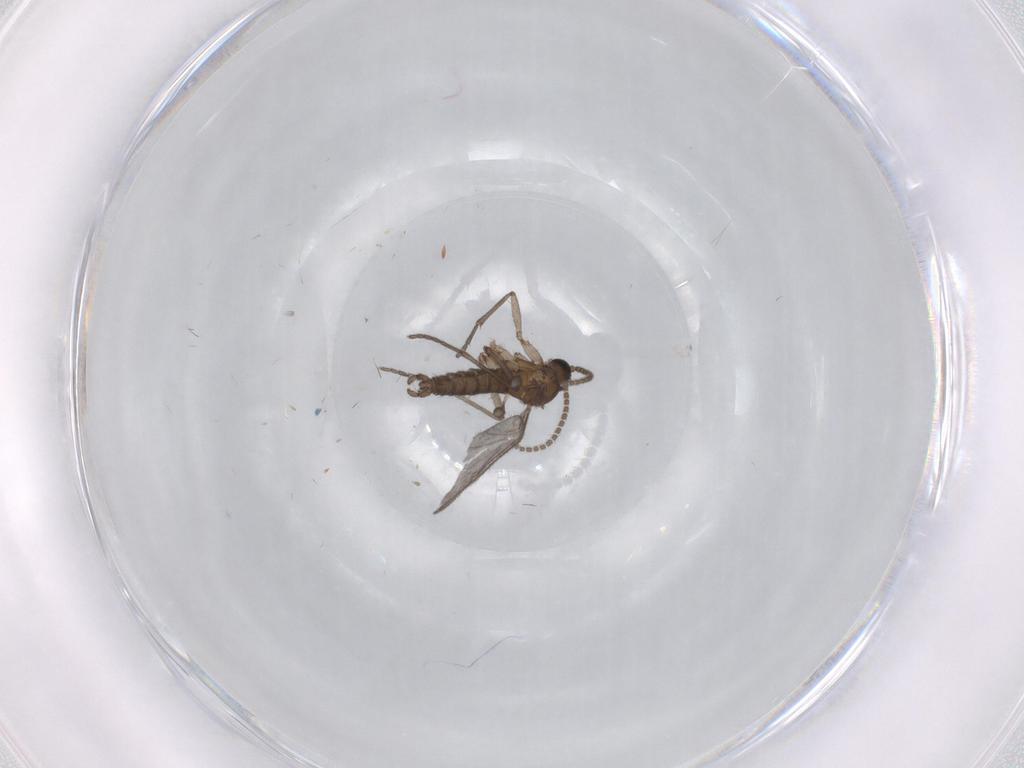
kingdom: Animalia
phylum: Arthropoda
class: Insecta
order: Diptera
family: Sciaridae
